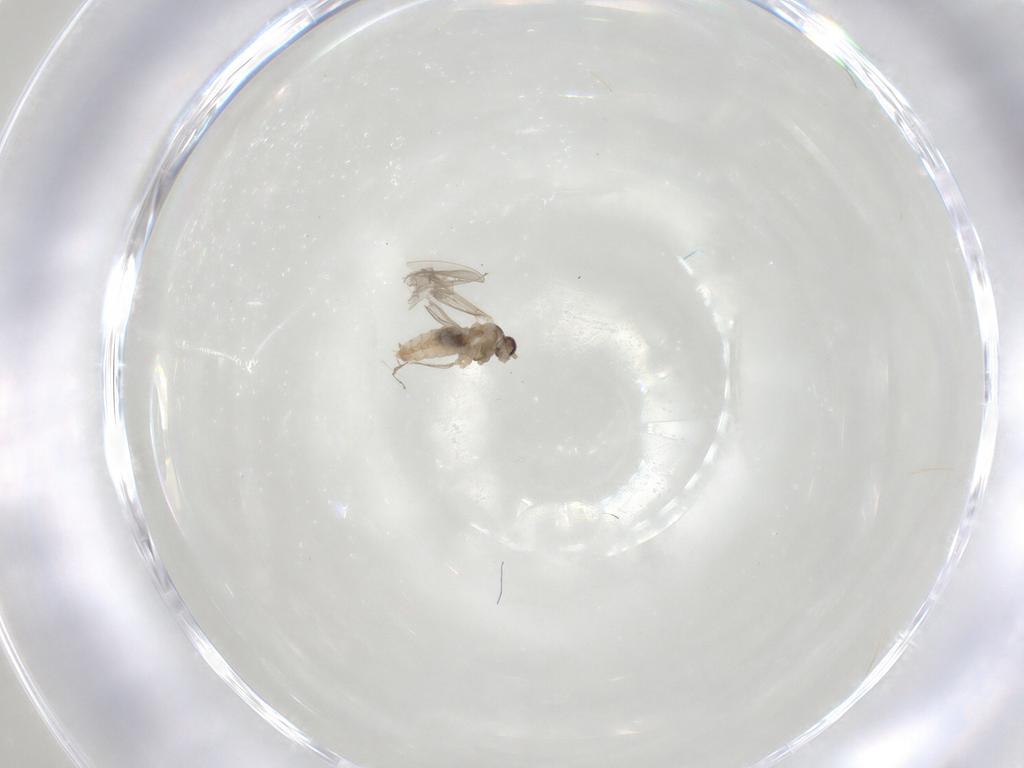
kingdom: Animalia
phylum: Arthropoda
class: Insecta
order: Diptera
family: Cecidomyiidae
